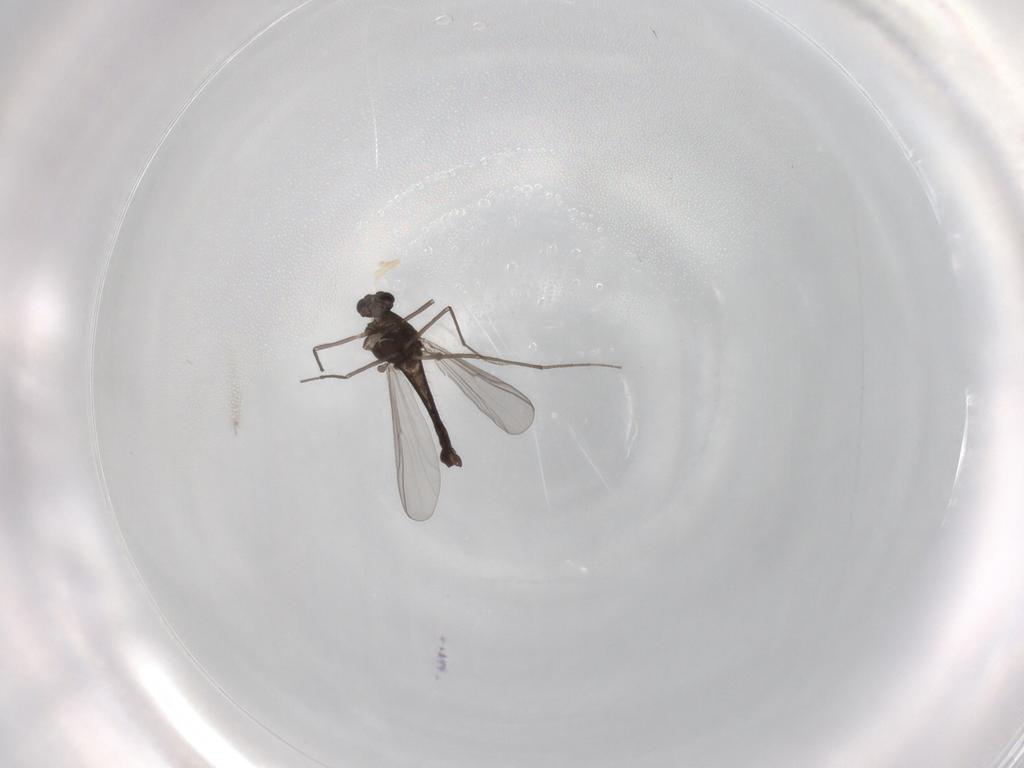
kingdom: Animalia
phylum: Arthropoda
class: Insecta
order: Diptera
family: Chironomidae
